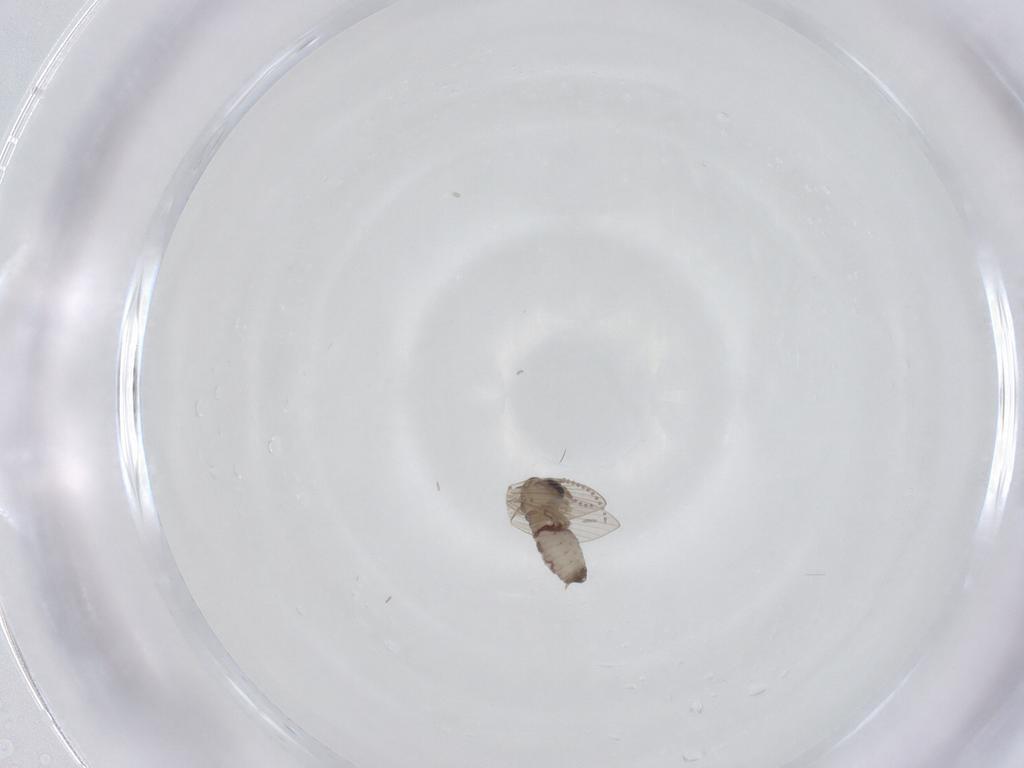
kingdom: Animalia
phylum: Arthropoda
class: Insecta
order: Diptera
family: Psychodidae
